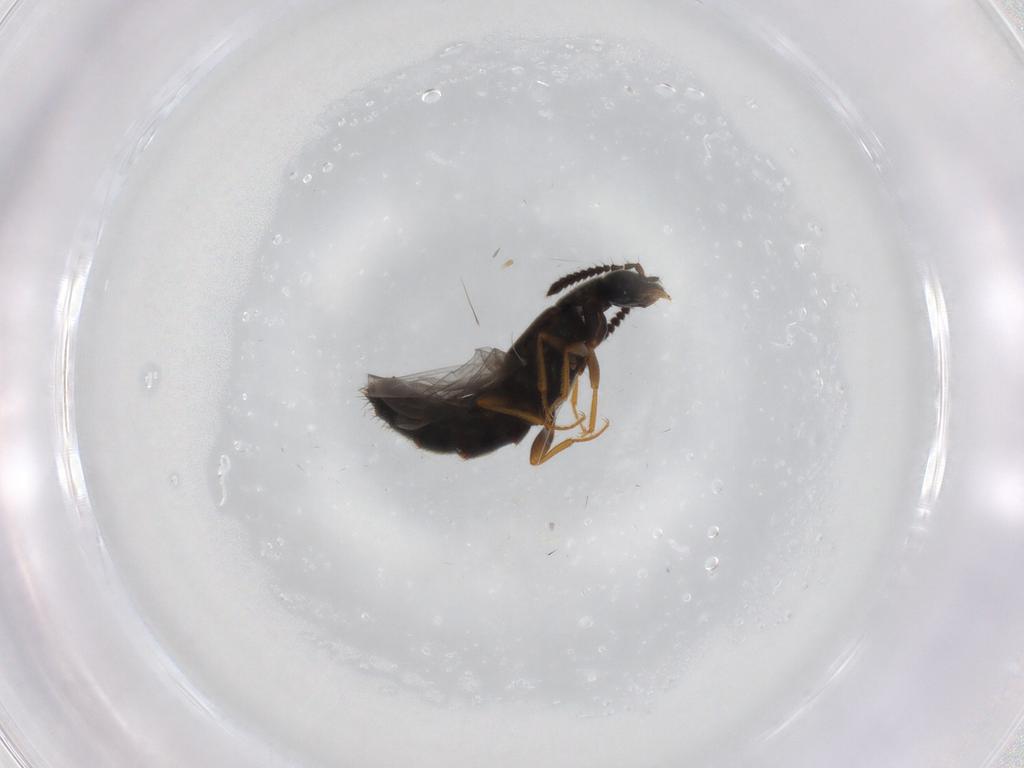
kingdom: Animalia
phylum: Arthropoda
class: Insecta
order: Coleoptera
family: Staphylinidae
